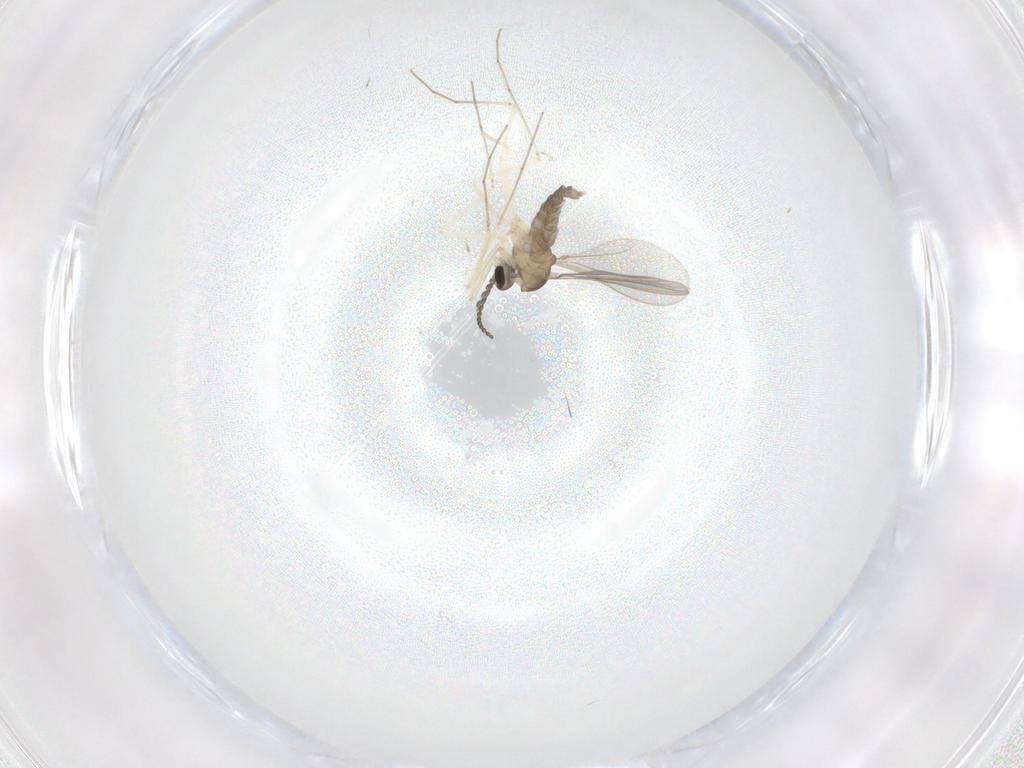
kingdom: Animalia
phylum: Arthropoda
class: Insecta
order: Diptera
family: Cecidomyiidae
